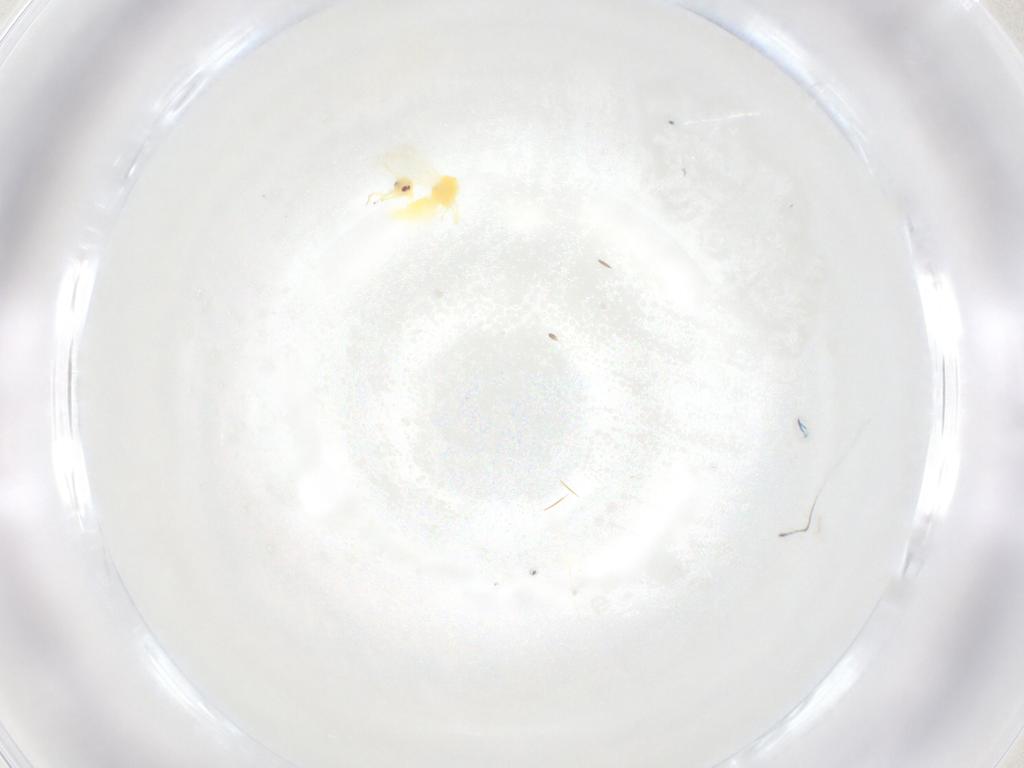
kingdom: Animalia
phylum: Arthropoda
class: Insecta
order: Hemiptera
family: Aleyrodidae
